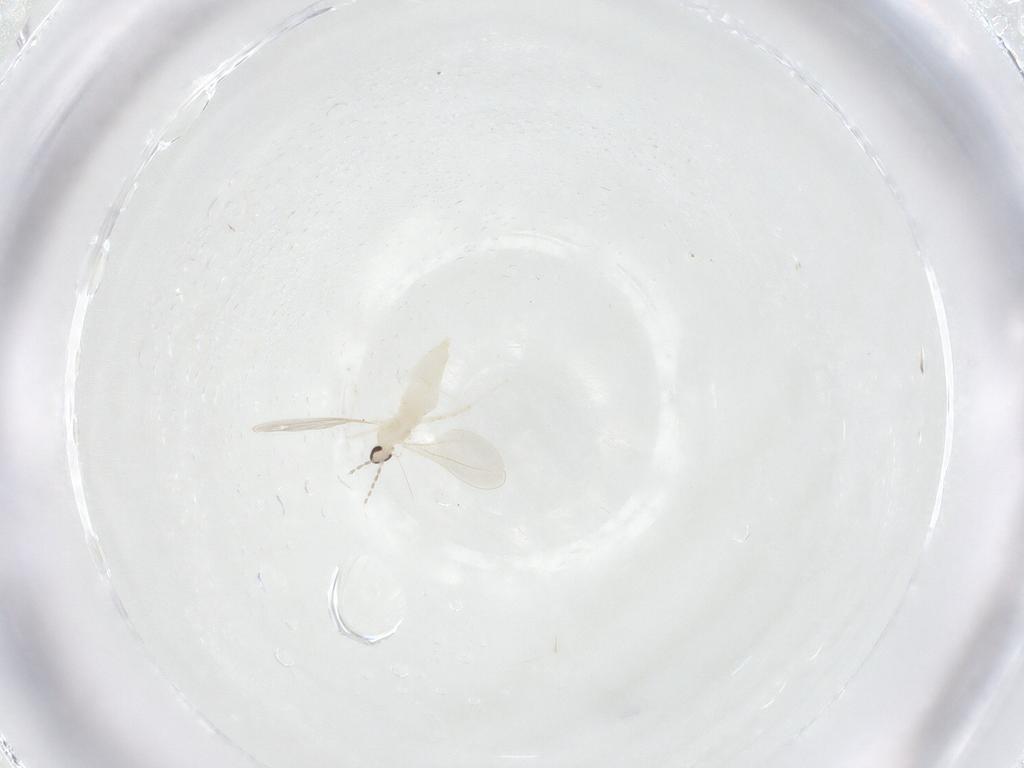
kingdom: Animalia
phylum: Arthropoda
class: Insecta
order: Diptera
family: Cecidomyiidae
